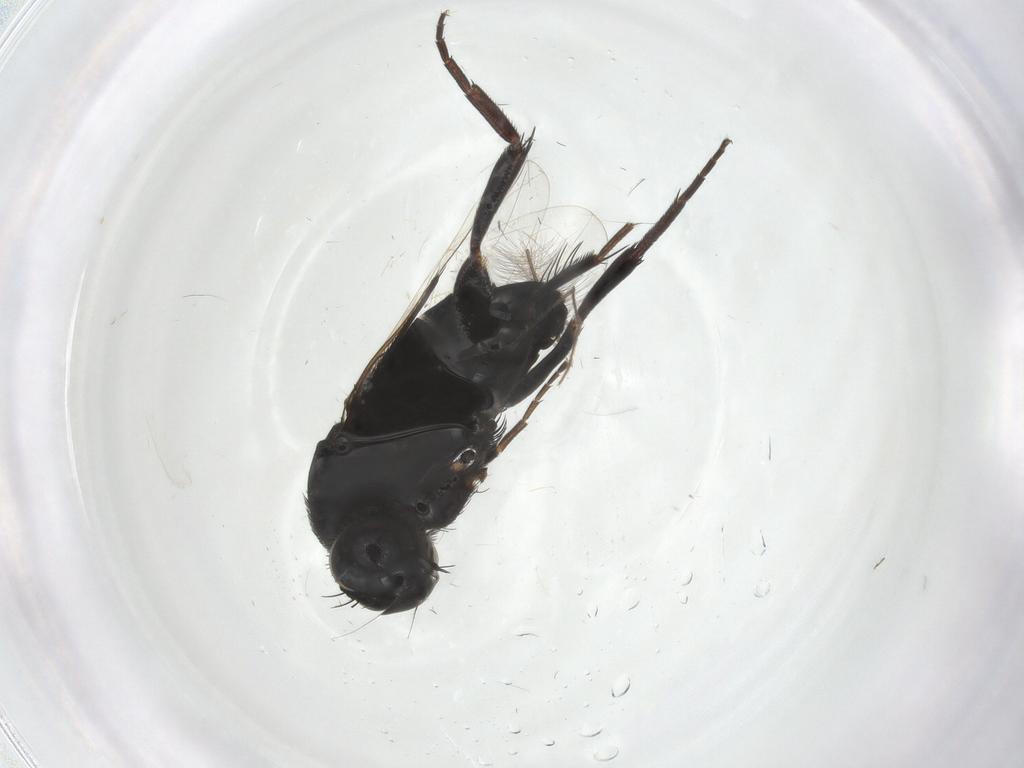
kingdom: Animalia
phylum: Arthropoda
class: Insecta
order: Diptera
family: Phoridae
